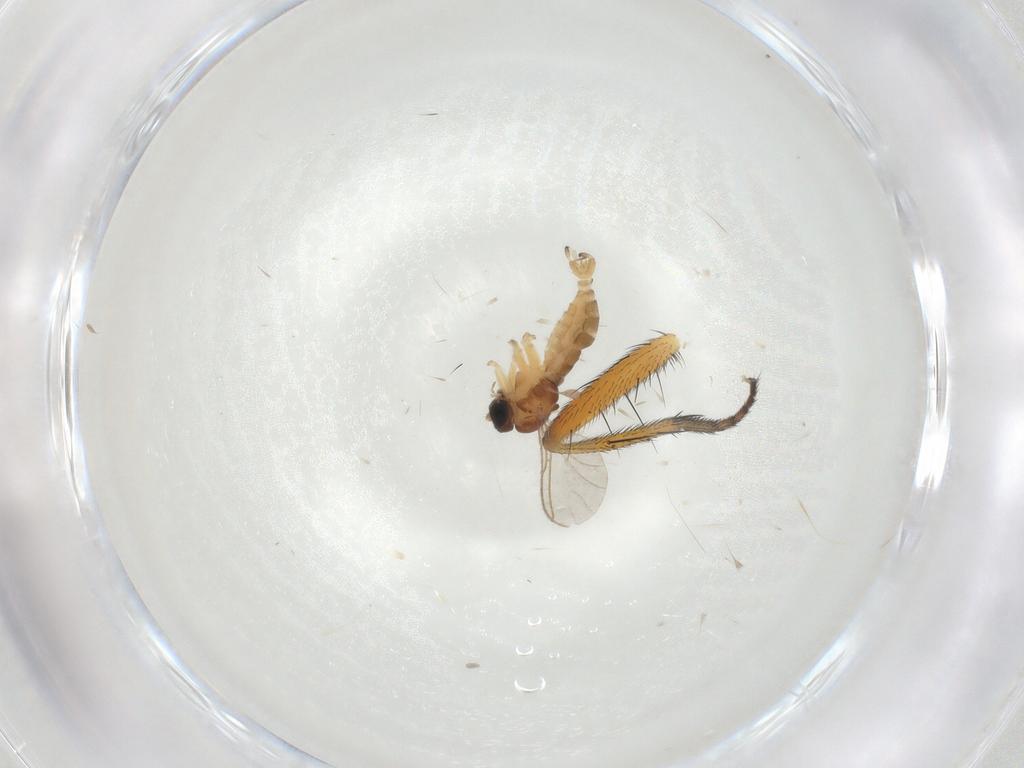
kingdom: Animalia
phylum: Arthropoda
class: Insecta
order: Diptera
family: Sciaridae
